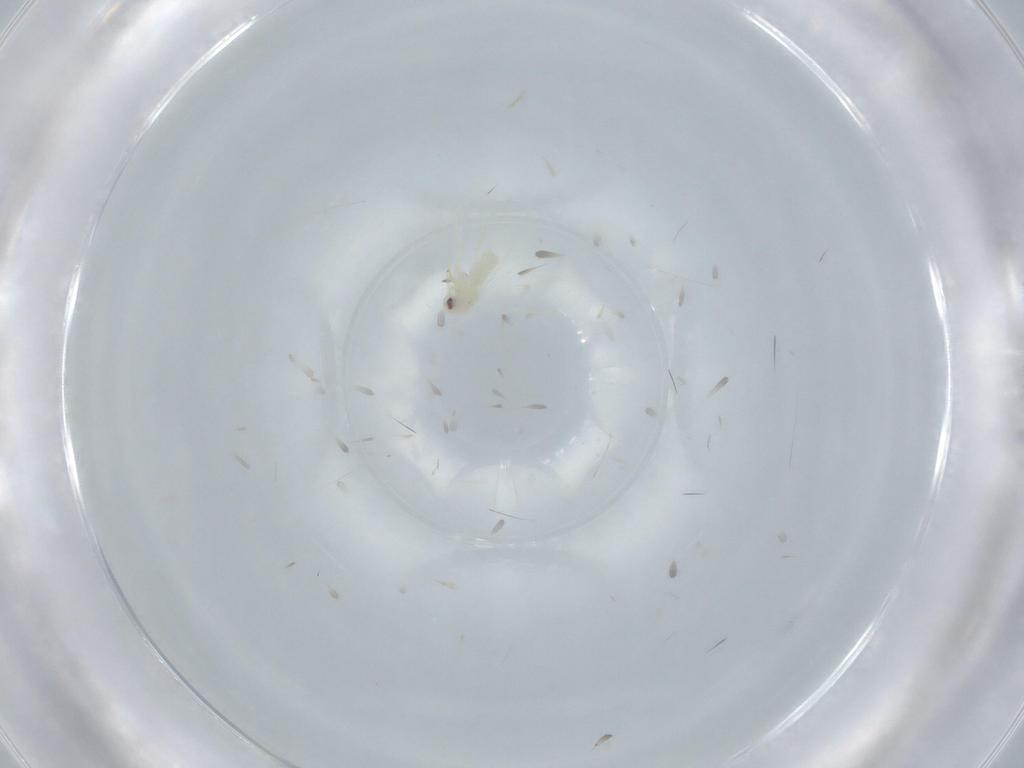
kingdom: Animalia
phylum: Arthropoda
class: Insecta
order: Hemiptera
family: Aleyrodidae
